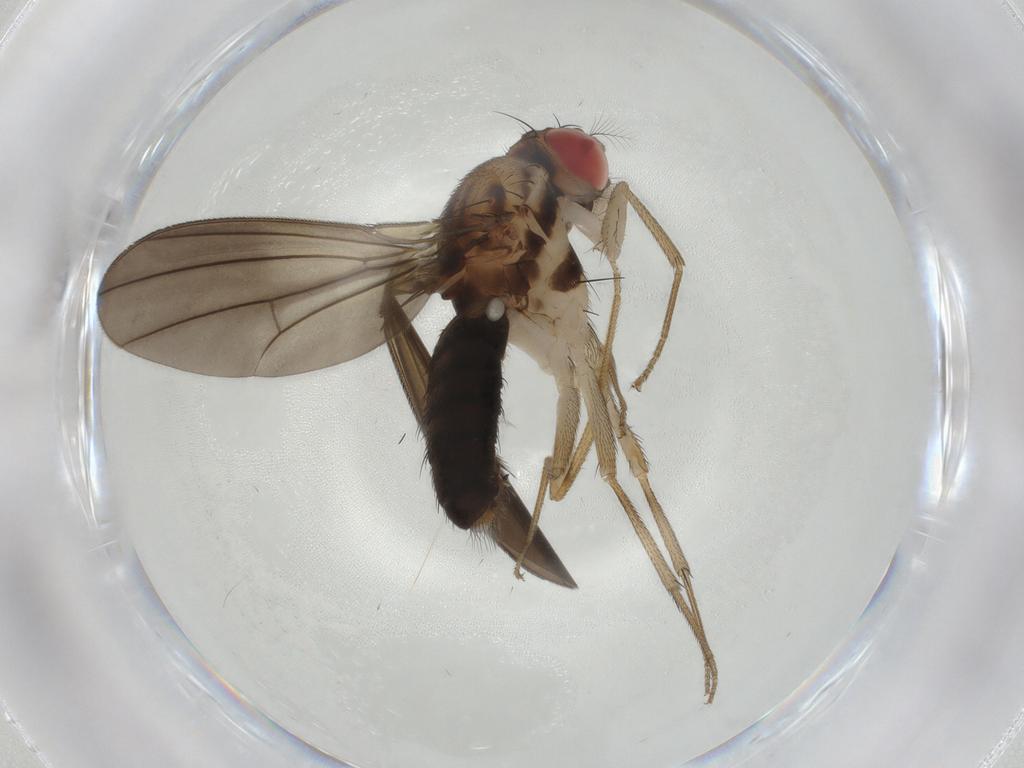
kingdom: Animalia
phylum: Arthropoda
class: Insecta
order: Diptera
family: Drosophilidae
